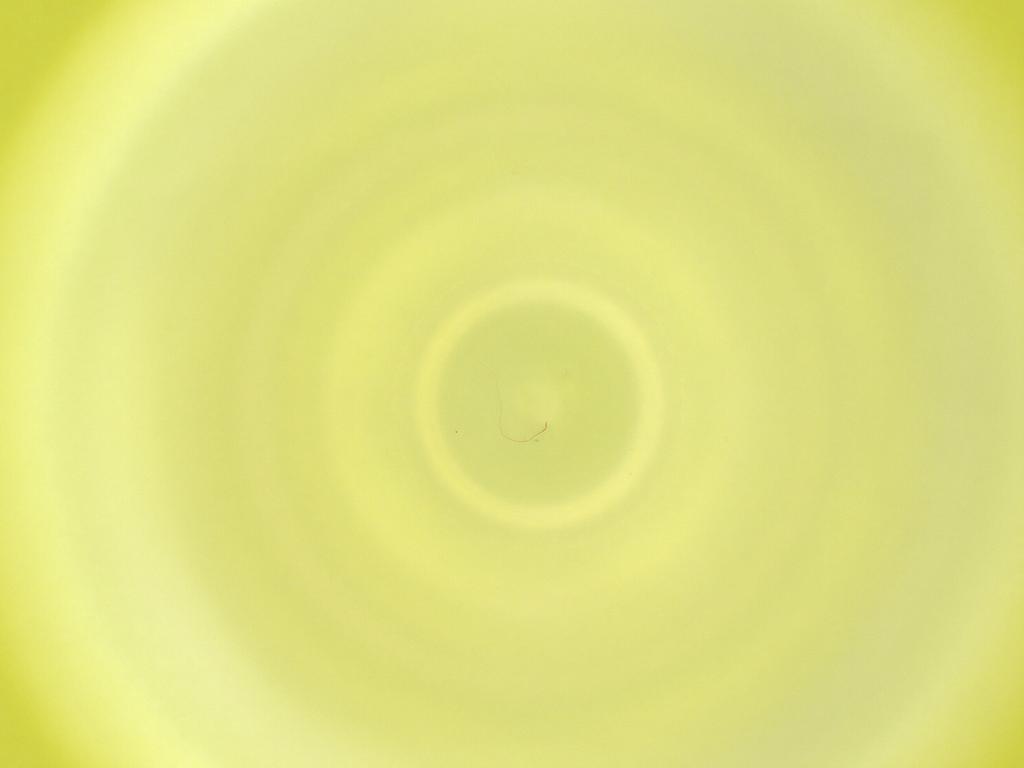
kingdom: Animalia
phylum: Arthropoda
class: Insecta
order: Diptera
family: Cecidomyiidae
